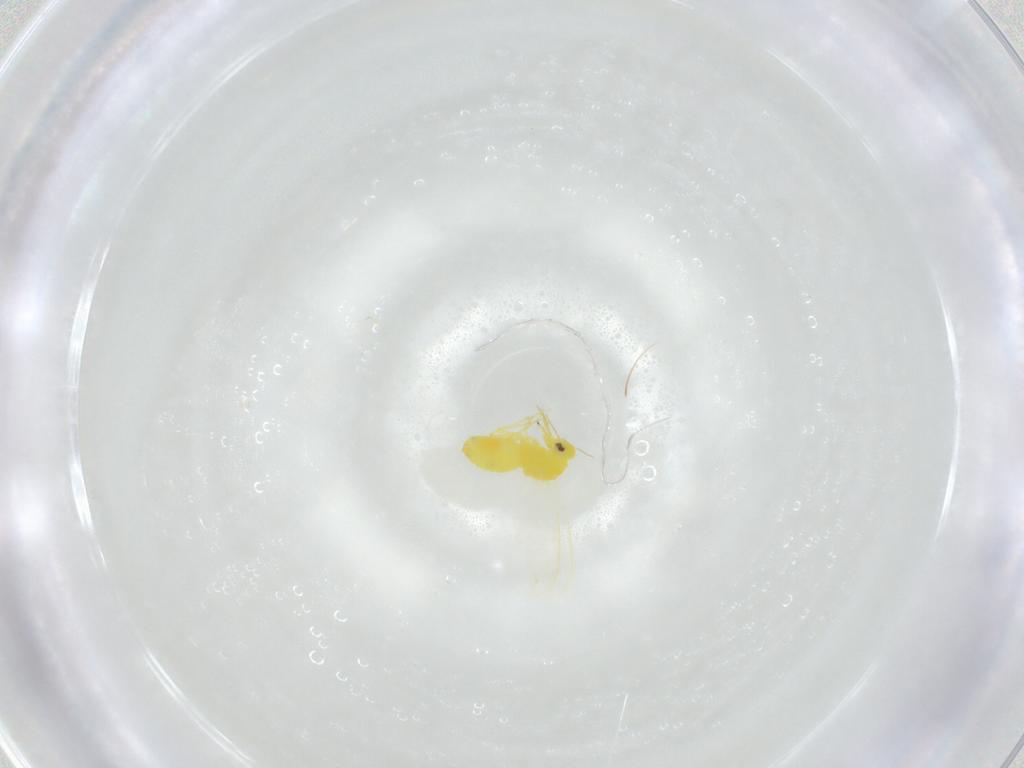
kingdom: Animalia
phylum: Arthropoda
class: Insecta
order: Hemiptera
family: Aleyrodidae
